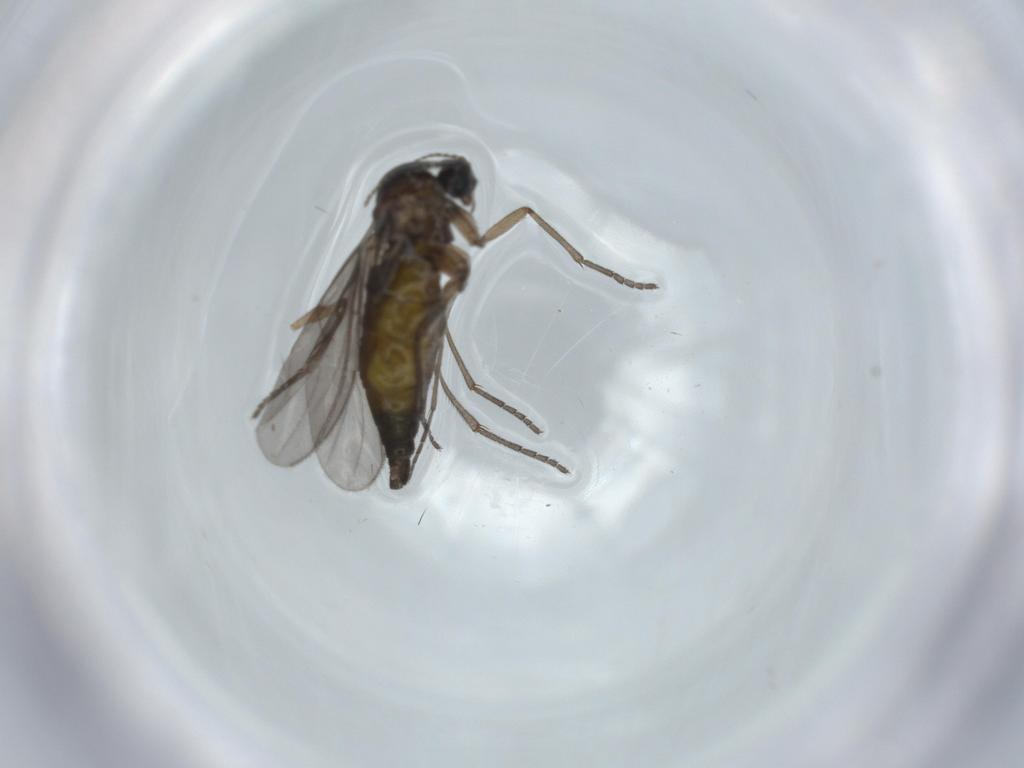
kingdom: Animalia
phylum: Arthropoda
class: Insecta
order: Diptera
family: Sciaridae
